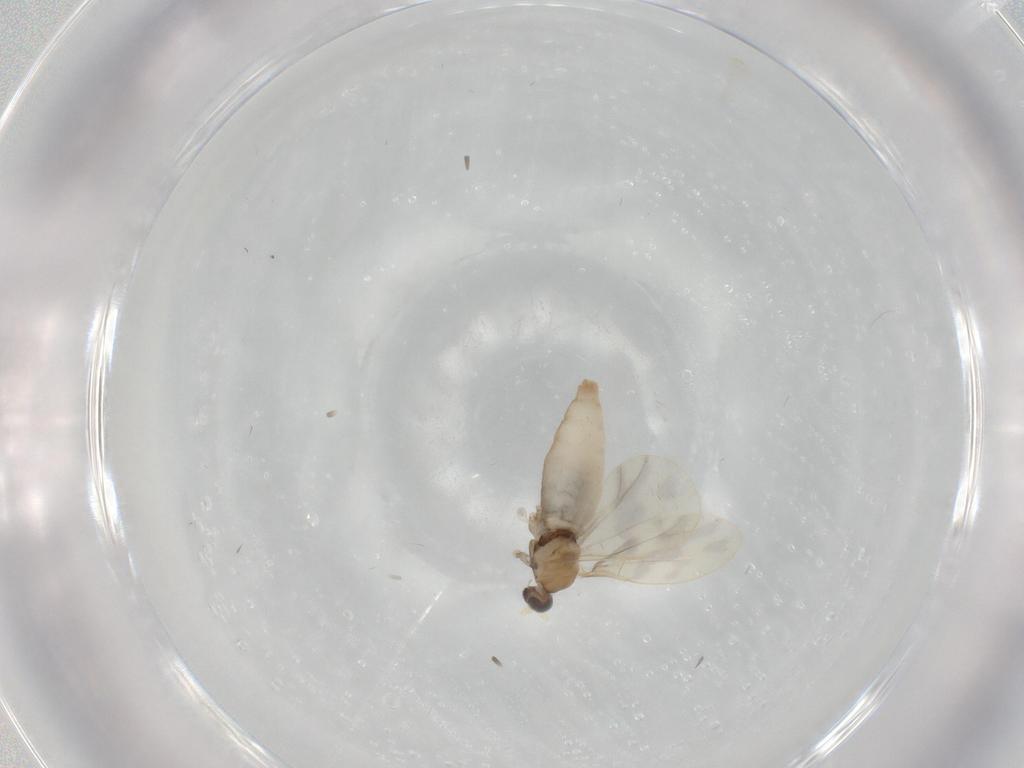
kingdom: Animalia
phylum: Arthropoda
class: Insecta
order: Diptera
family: Cecidomyiidae
